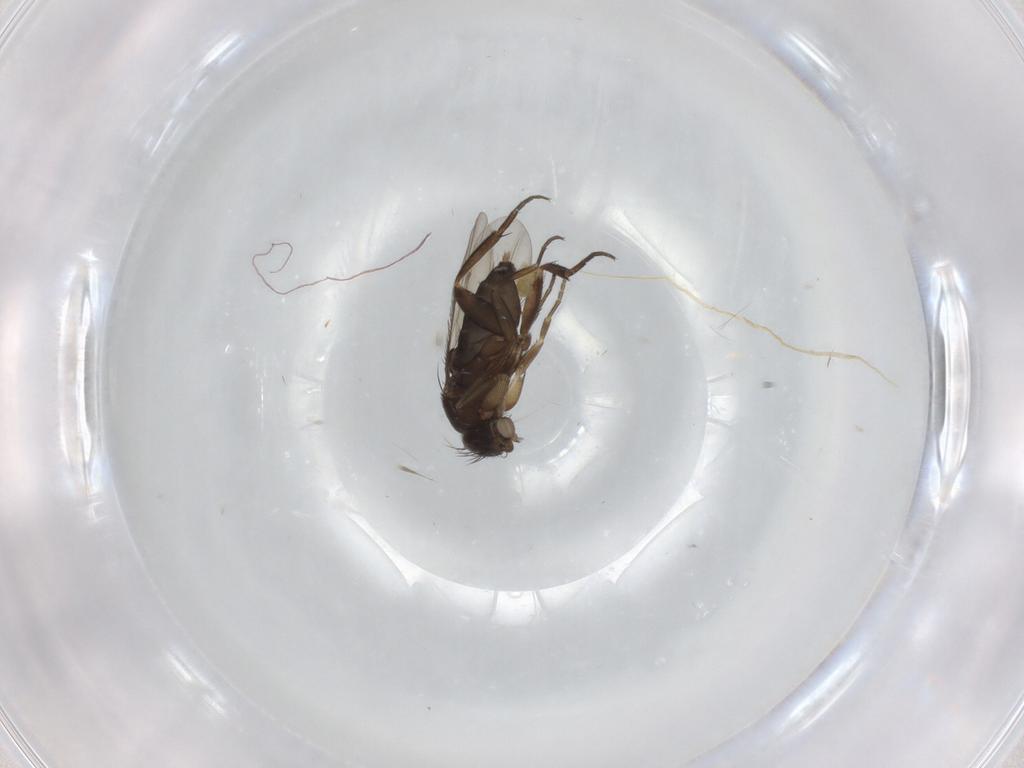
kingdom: Animalia
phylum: Arthropoda
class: Insecta
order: Diptera
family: Phoridae
